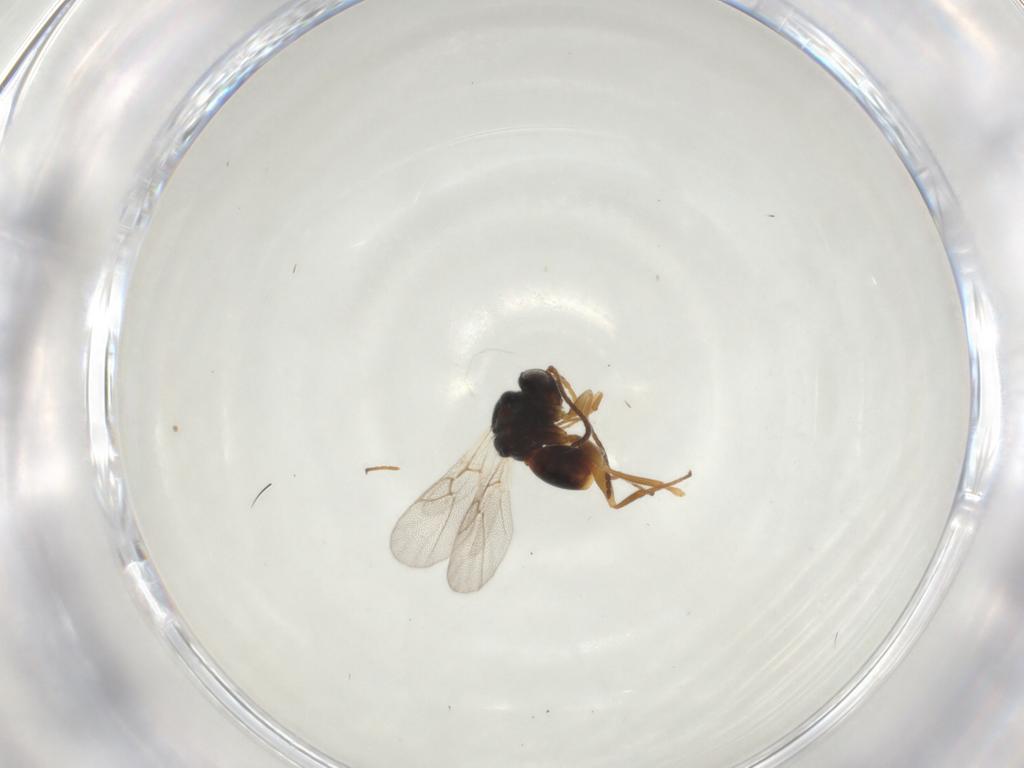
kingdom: Animalia
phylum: Arthropoda
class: Insecta
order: Hymenoptera
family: Cynipidae
